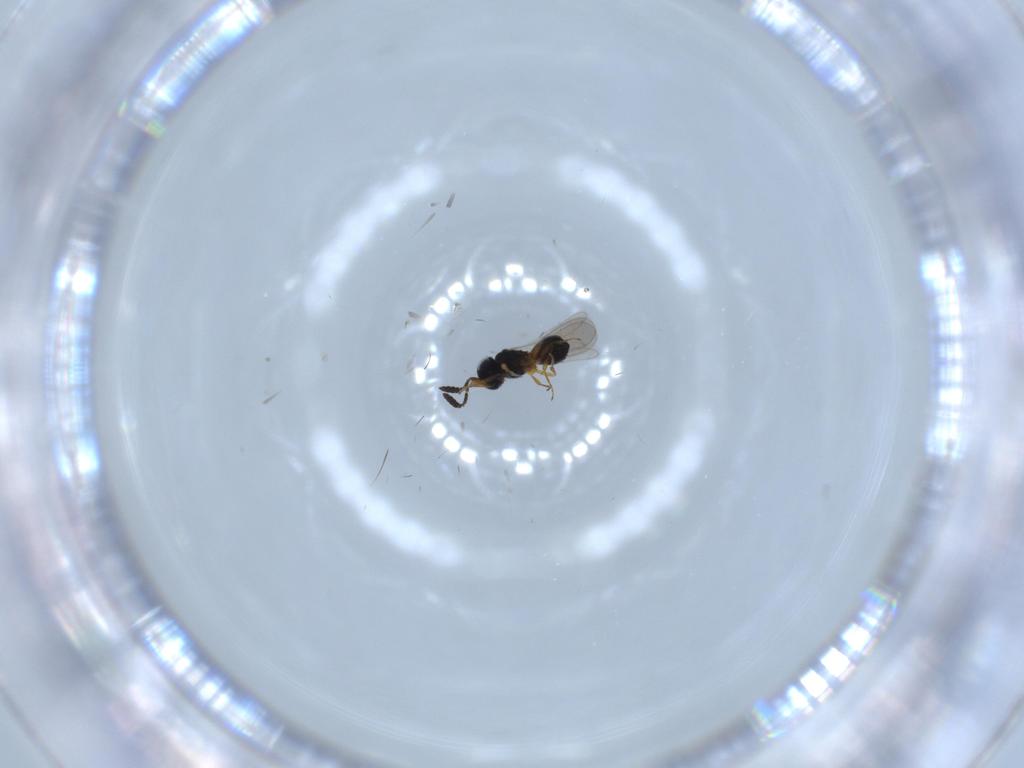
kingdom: Animalia
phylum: Arthropoda
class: Insecta
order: Hymenoptera
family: Scelionidae
